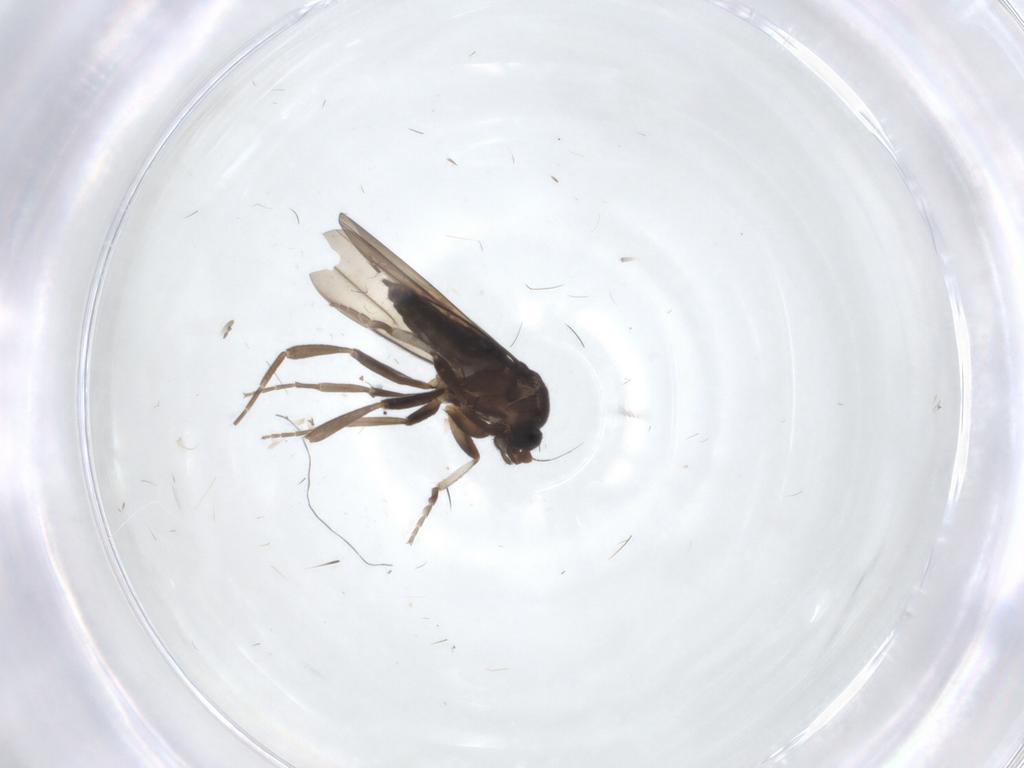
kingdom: Animalia
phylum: Arthropoda
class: Insecta
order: Diptera
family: Phoridae
